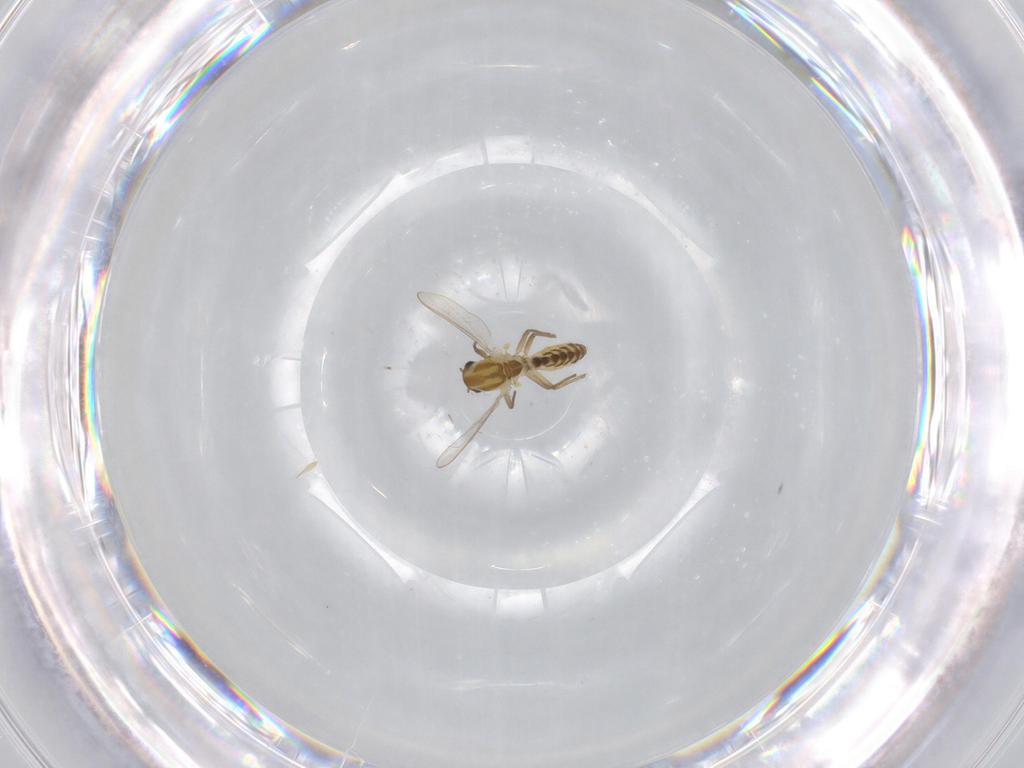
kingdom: Animalia
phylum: Arthropoda
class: Insecta
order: Diptera
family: Chironomidae
